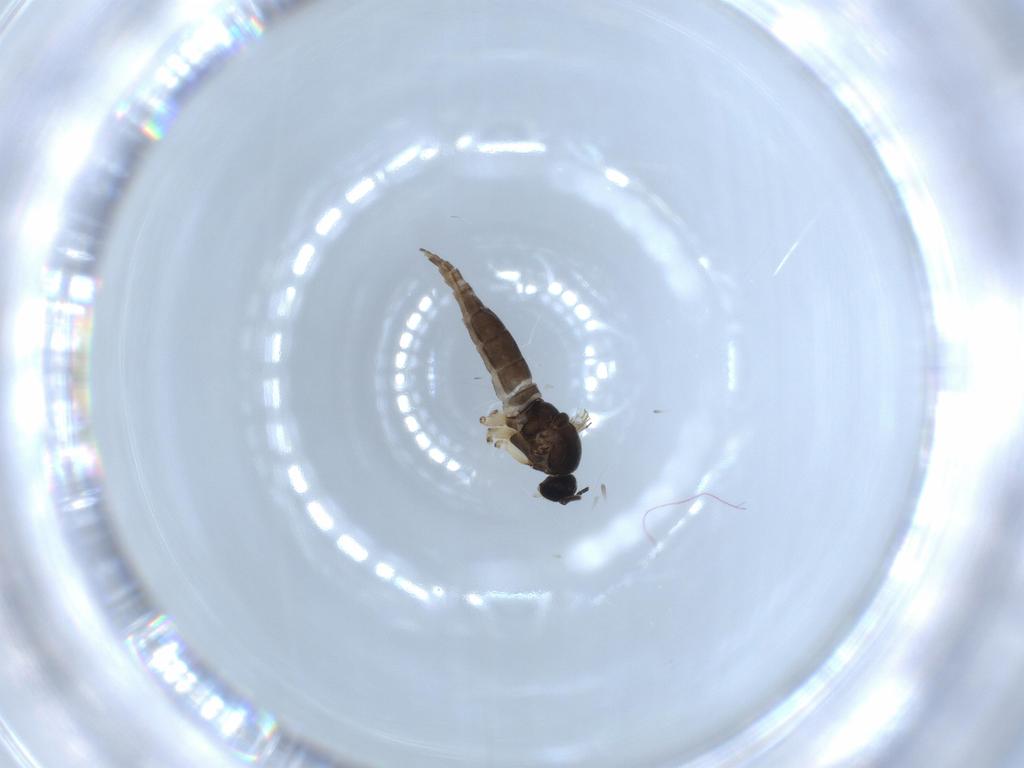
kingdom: Animalia
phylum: Arthropoda
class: Insecta
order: Diptera
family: Sciaridae
